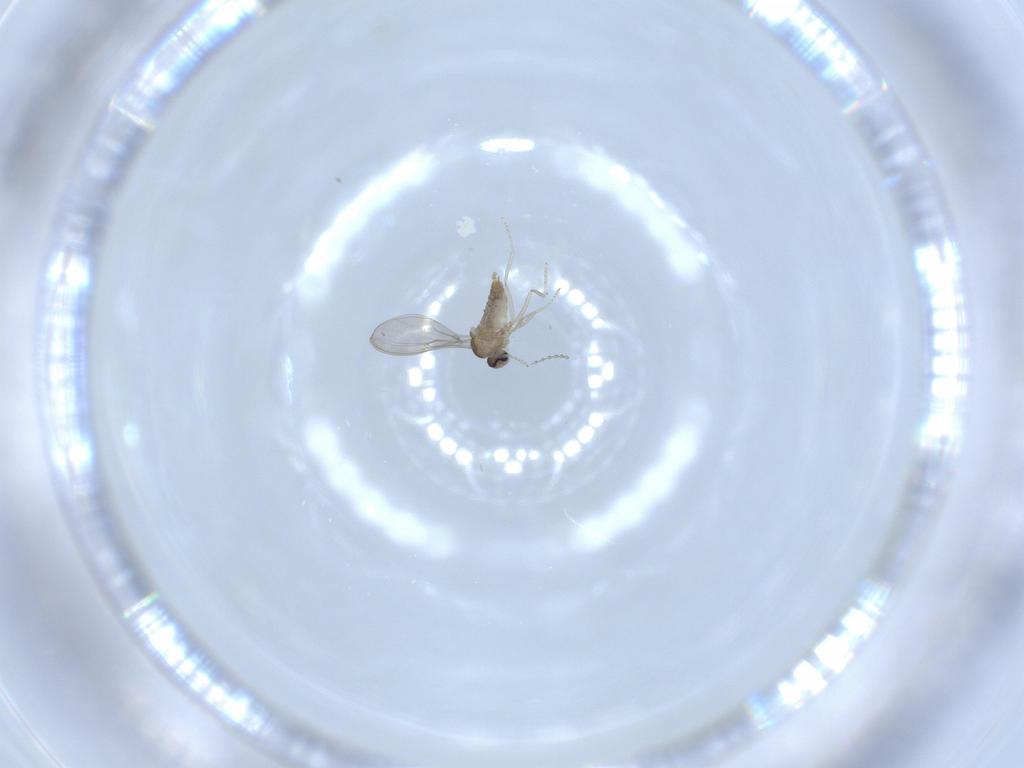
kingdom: Animalia
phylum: Arthropoda
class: Insecta
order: Diptera
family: Cecidomyiidae
